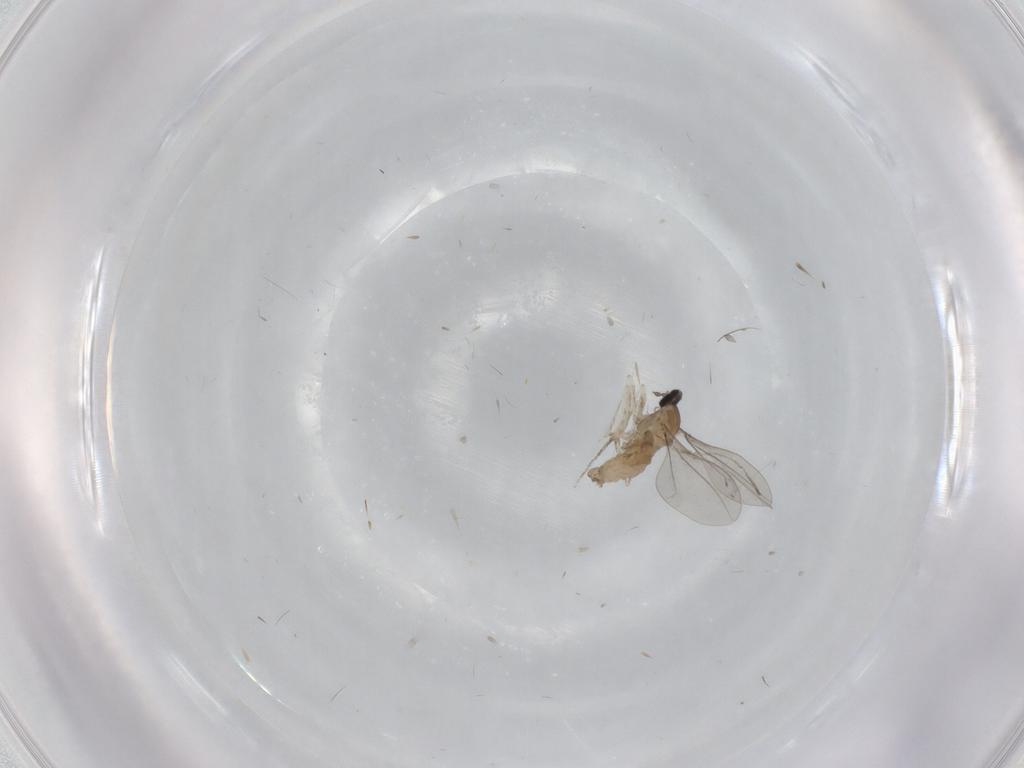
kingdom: Animalia
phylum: Arthropoda
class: Insecta
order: Diptera
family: Cecidomyiidae
